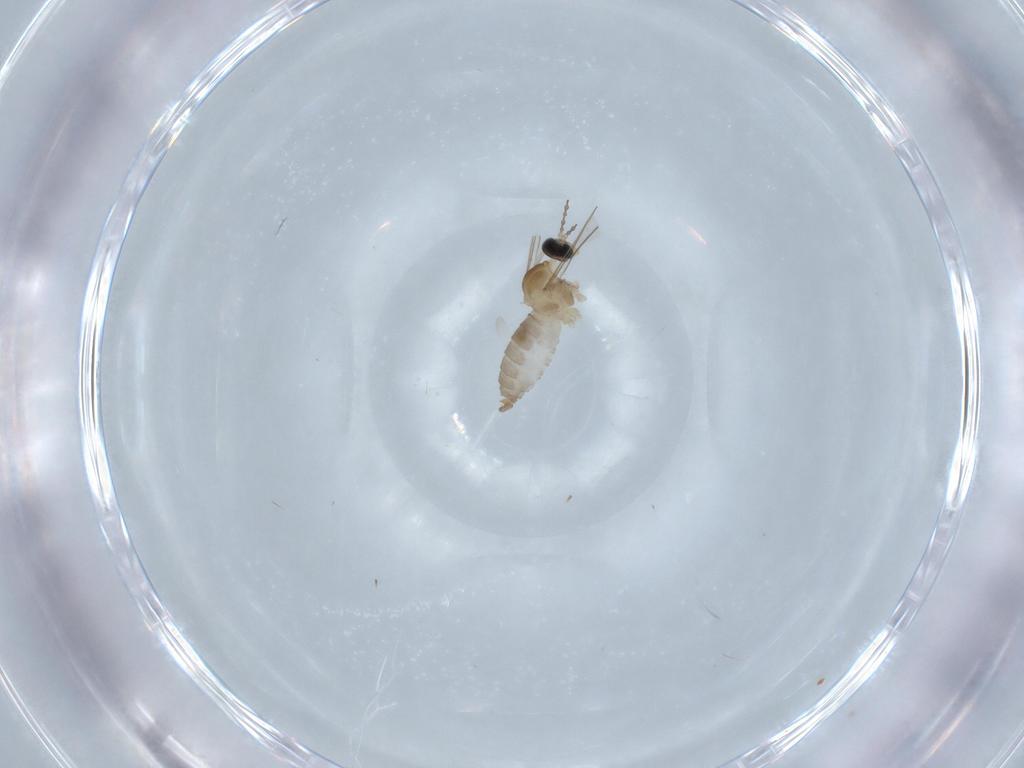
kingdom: Animalia
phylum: Arthropoda
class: Insecta
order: Diptera
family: Cecidomyiidae
